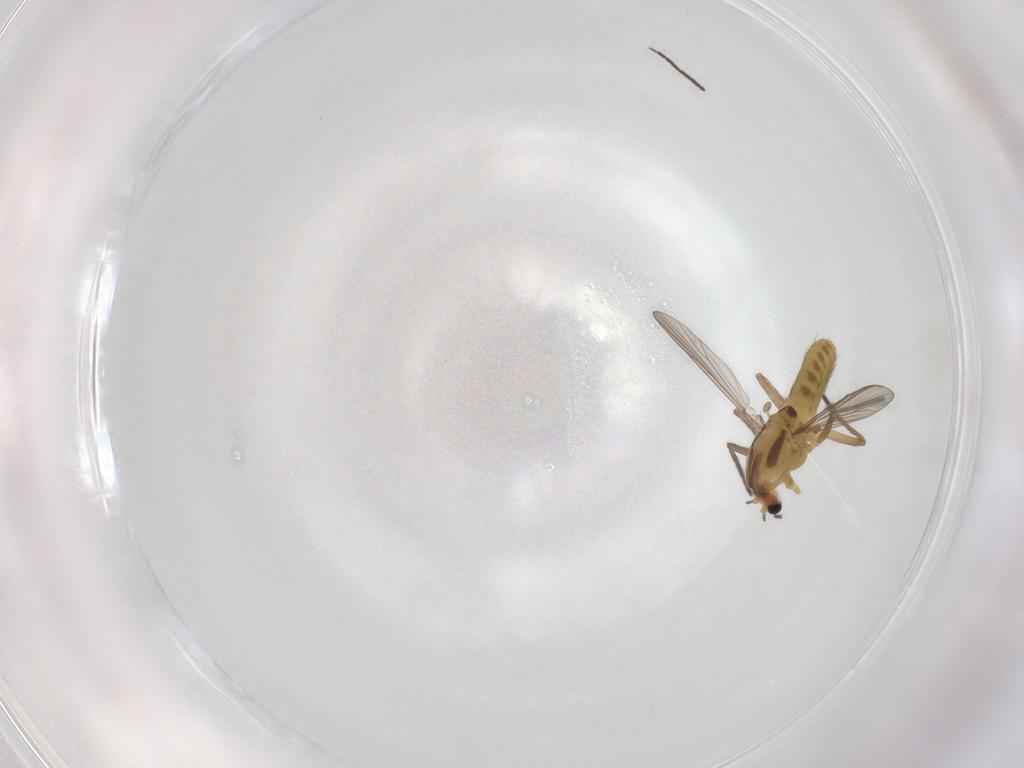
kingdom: Animalia
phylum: Arthropoda
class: Insecta
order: Diptera
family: Chironomidae
